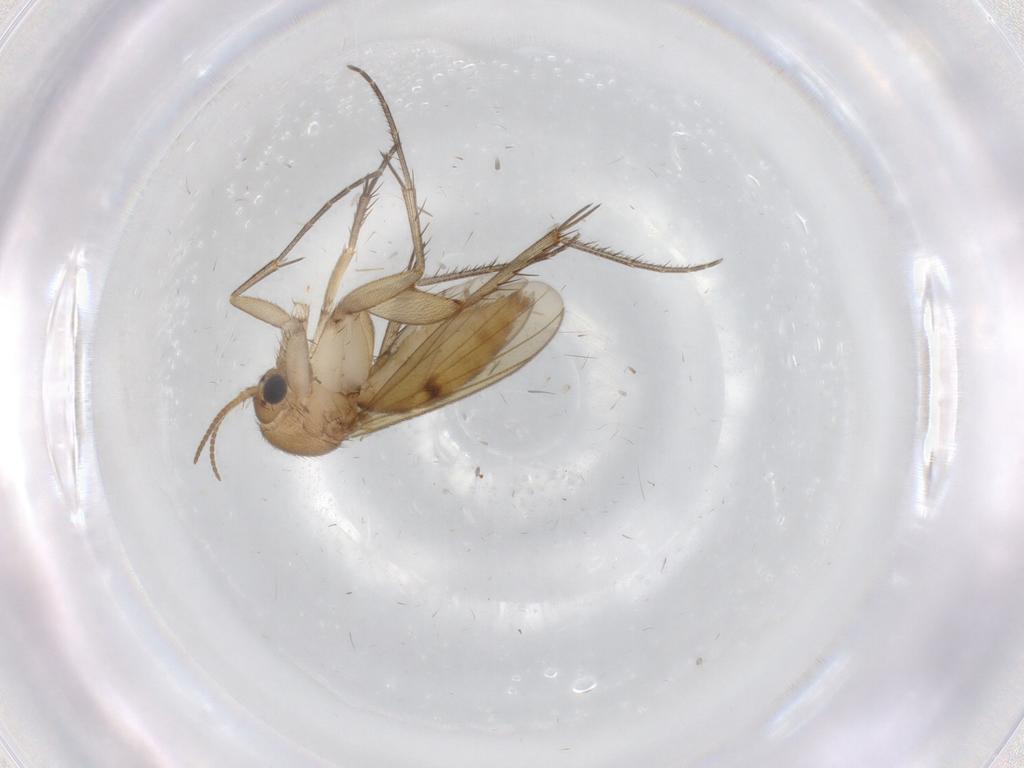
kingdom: Animalia
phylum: Arthropoda
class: Insecta
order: Diptera
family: Mycetophilidae
